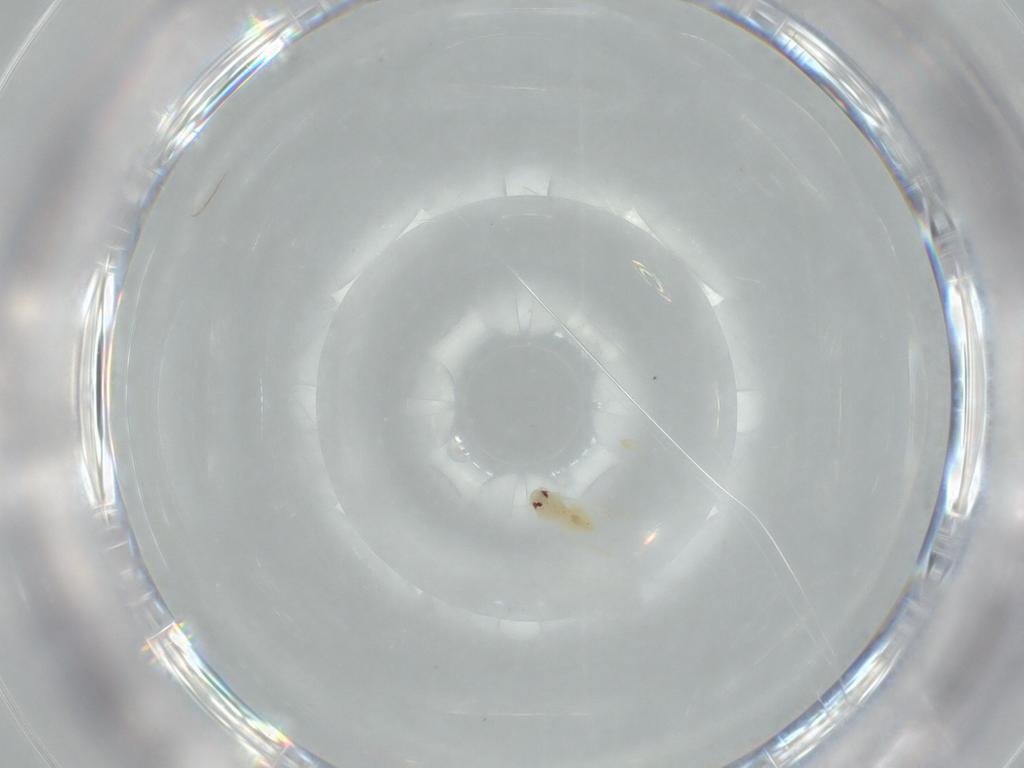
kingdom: Animalia
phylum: Arthropoda
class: Insecta
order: Hemiptera
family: Aleyrodidae
